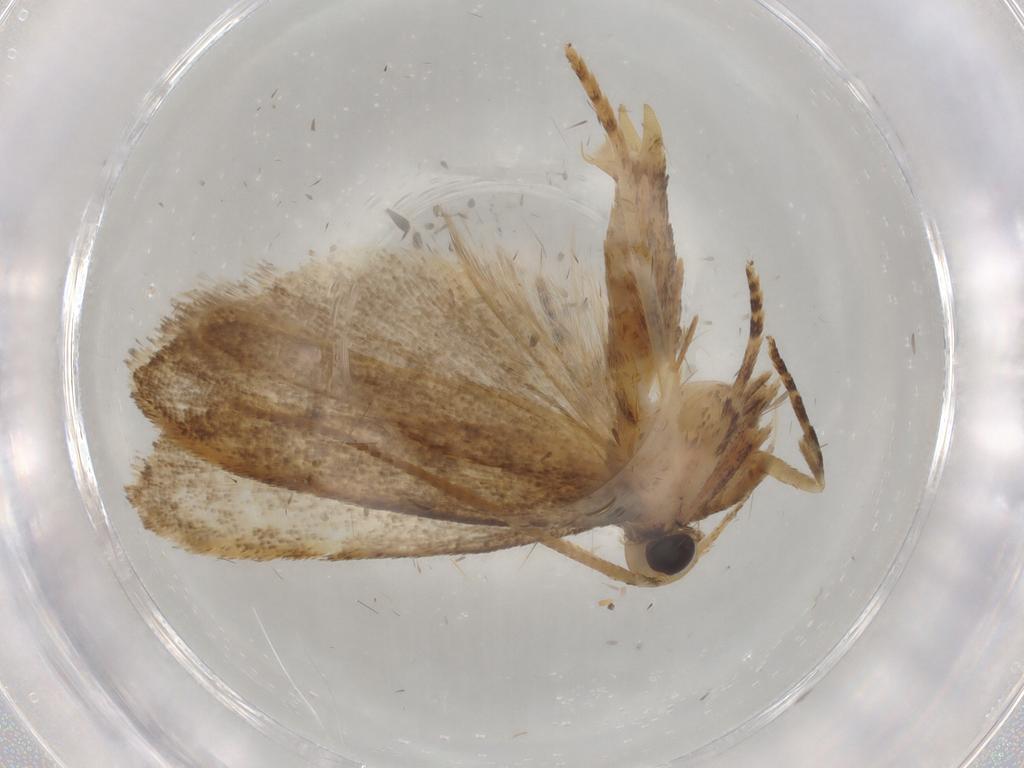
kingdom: Animalia
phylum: Arthropoda
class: Insecta
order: Lepidoptera
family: Autostichidae
